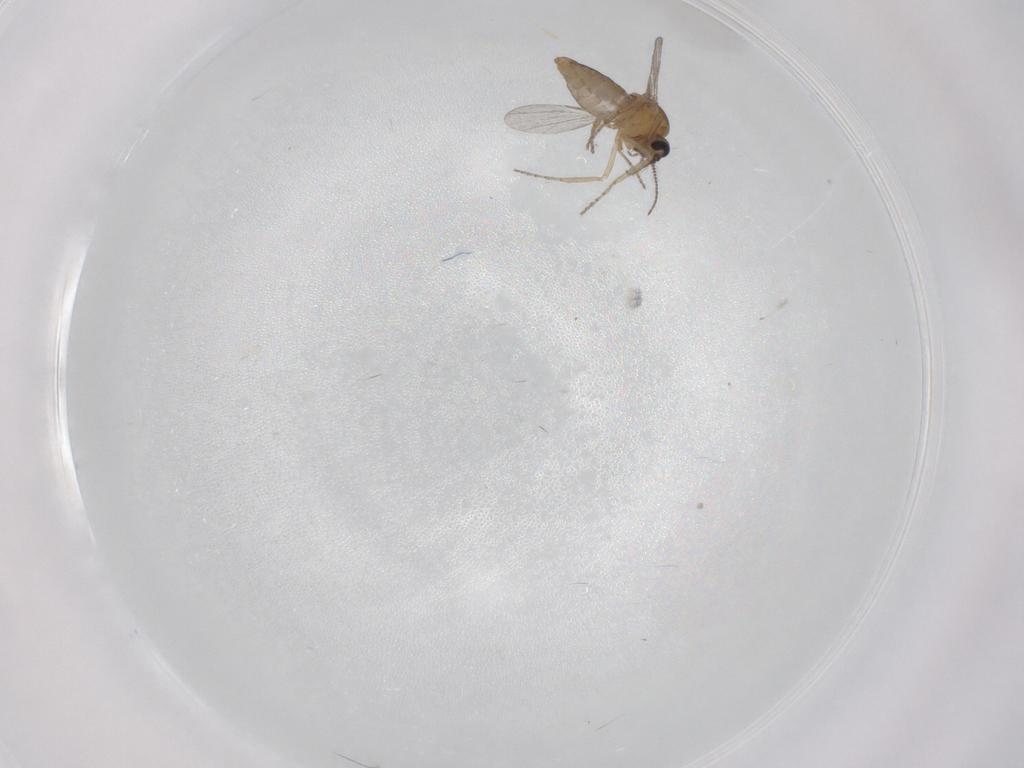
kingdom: Animalia
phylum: Arthropoda
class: Insecta
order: Diptera
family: Ceratopogonidae
